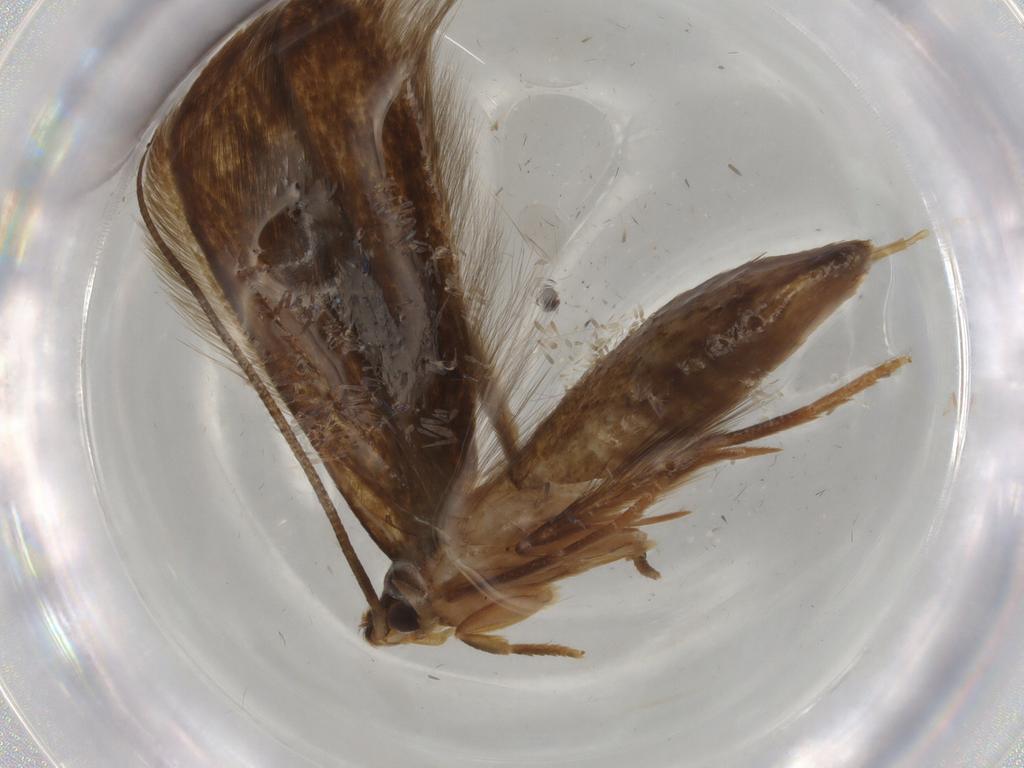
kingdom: Animalia
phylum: Arthropoda
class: Insecta
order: Lepidoptera
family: Tineidae
